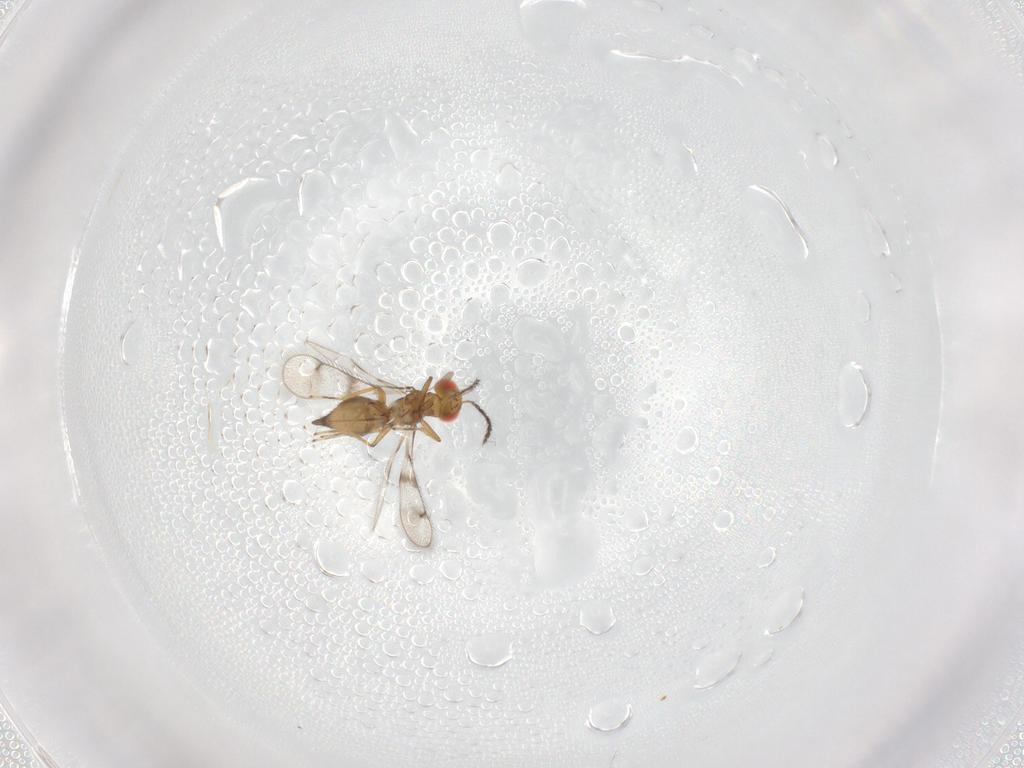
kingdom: Animalia
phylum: Arthropoda
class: Insecta
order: Hymenoptera
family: Eulophidae
